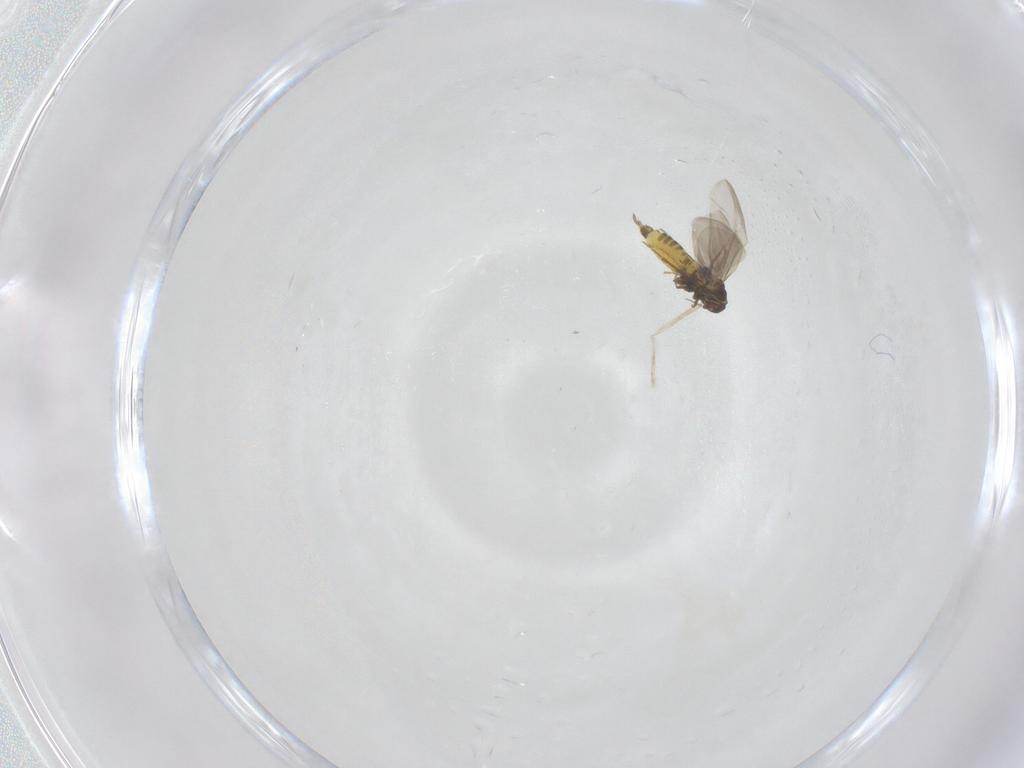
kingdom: Animalia
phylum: Arthropoda
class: Insecta
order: Hemiptera
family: Aleyrodidae
